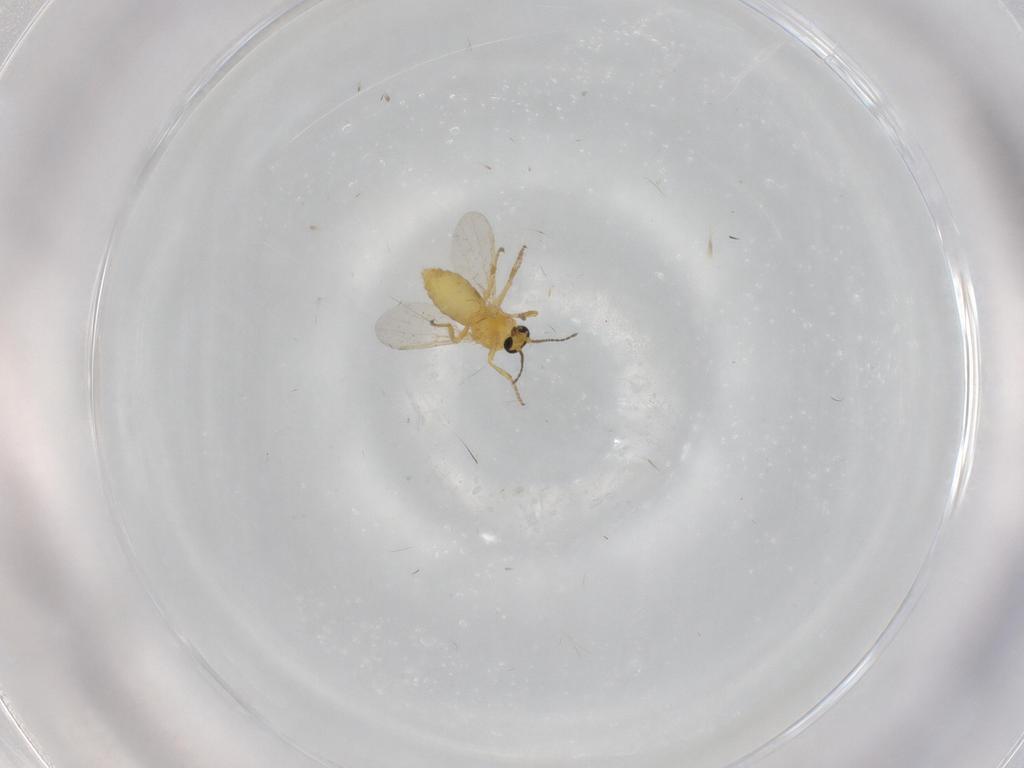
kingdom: Animalia
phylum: Arthropoda
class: Insecta
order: Diptera
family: Ceratopogonidae
